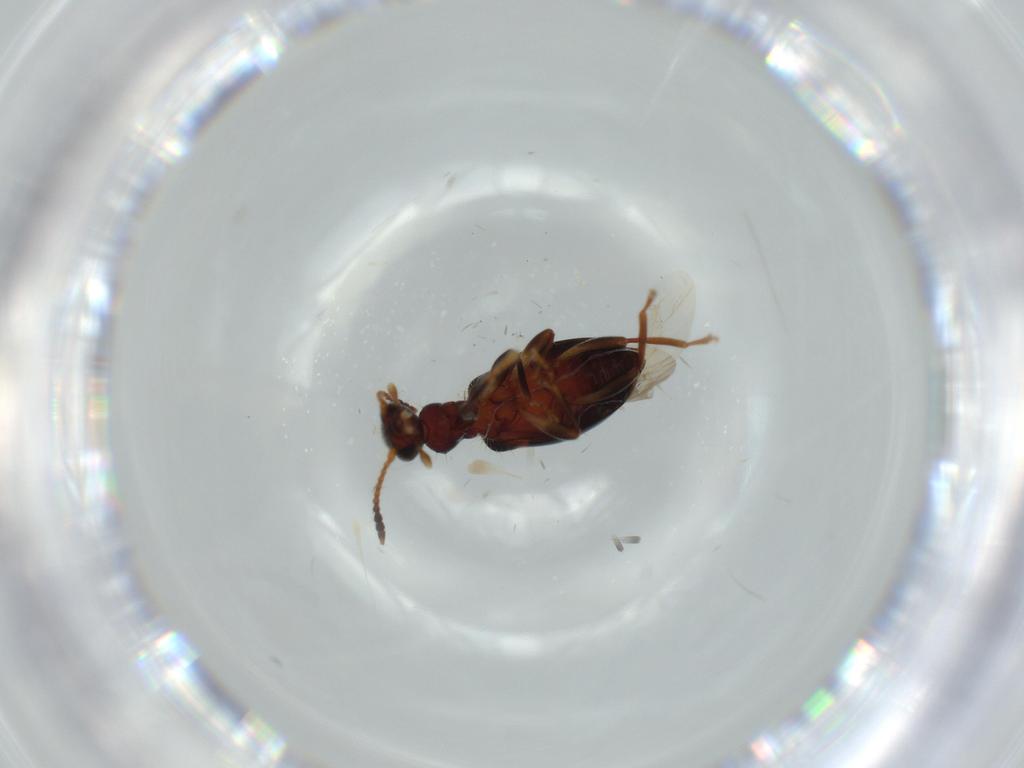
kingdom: Animalia
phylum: Arthropoda
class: Insecta
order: Coleoptera
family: Anthicidae
